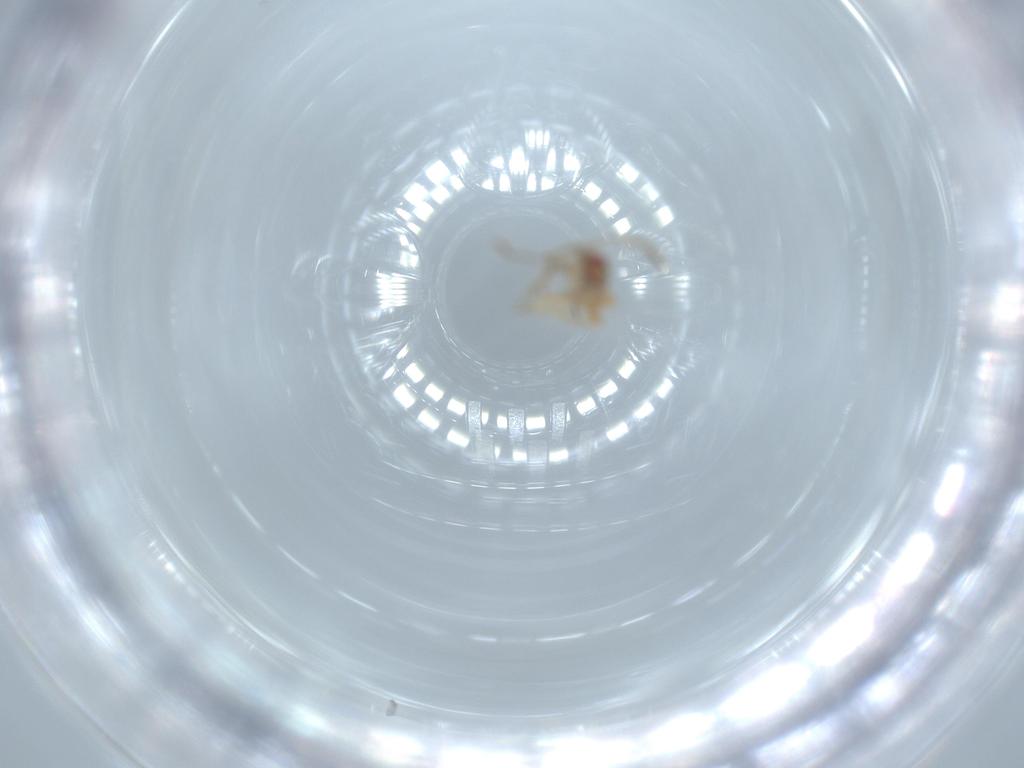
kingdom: Animalia
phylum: Arthropoda
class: Insecta
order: Hemiptera
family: Miridae
